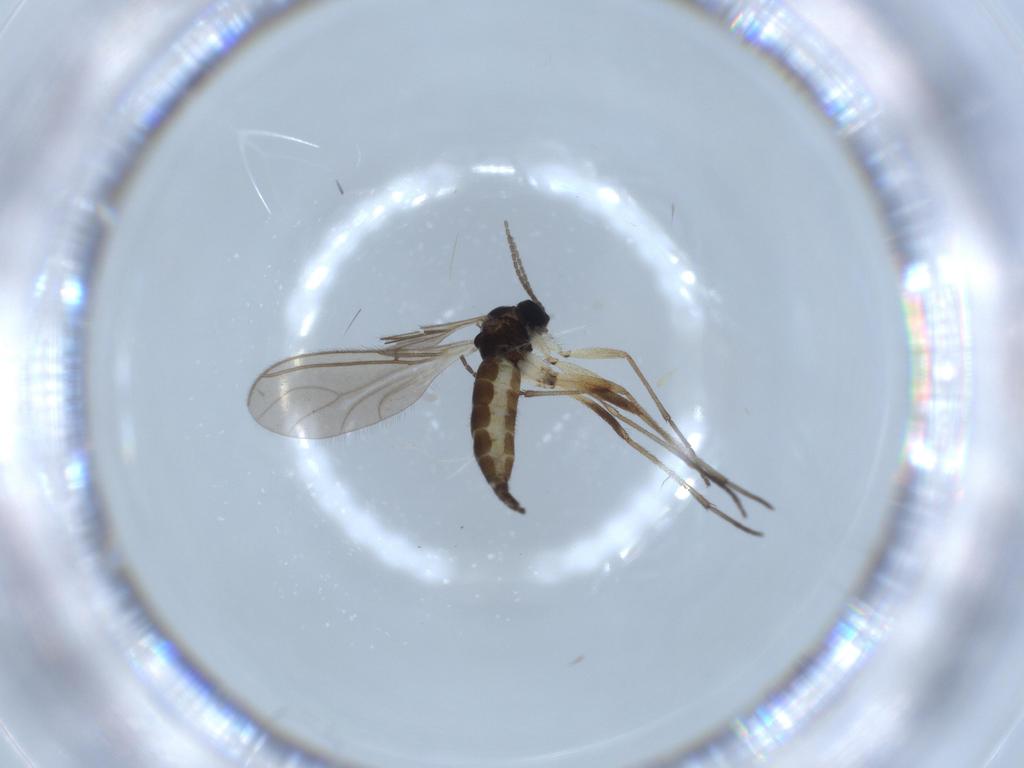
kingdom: Animalia
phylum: Arthropoda
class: Insecta
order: Diptera
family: Sciaridae
